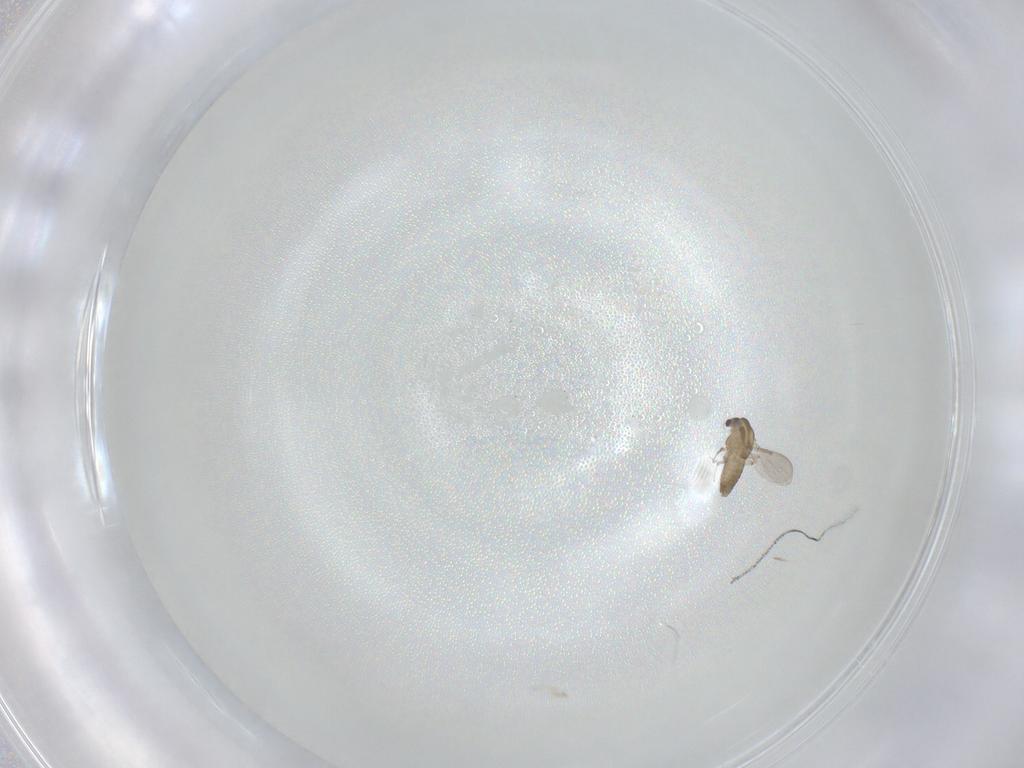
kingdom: Animalia
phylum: Arthropoda
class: Insecta
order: Diptera
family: Chironomidae
